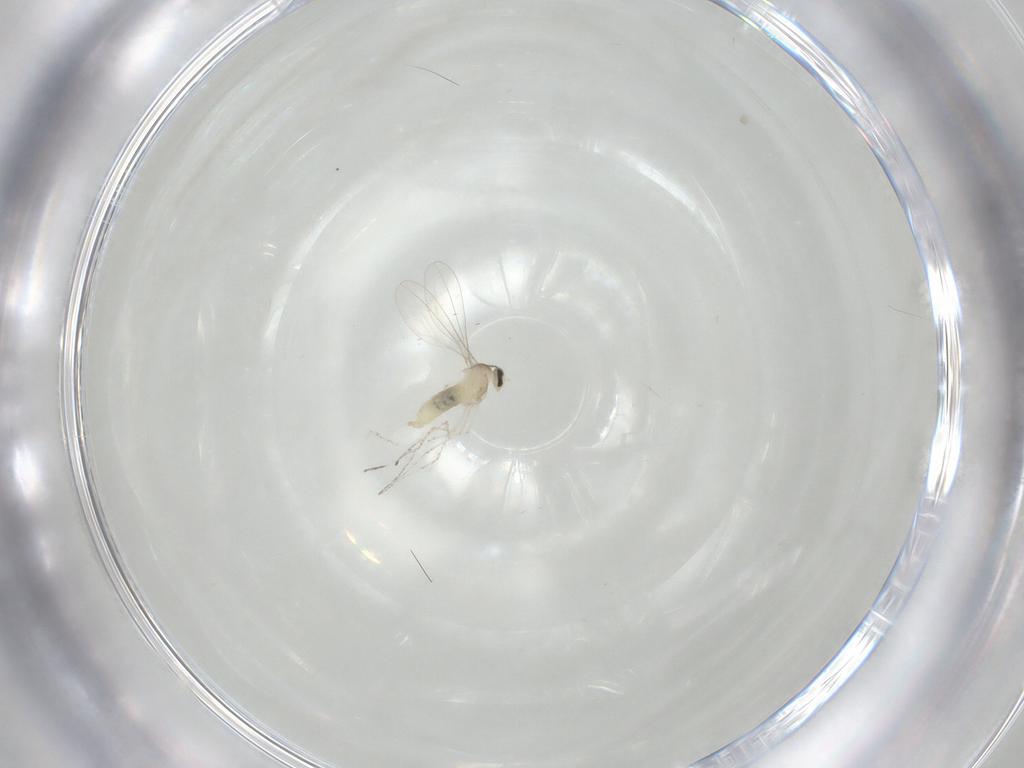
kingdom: Animalia
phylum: Arthropoda
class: Insecta
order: Diptera
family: Cecidomyiidae
